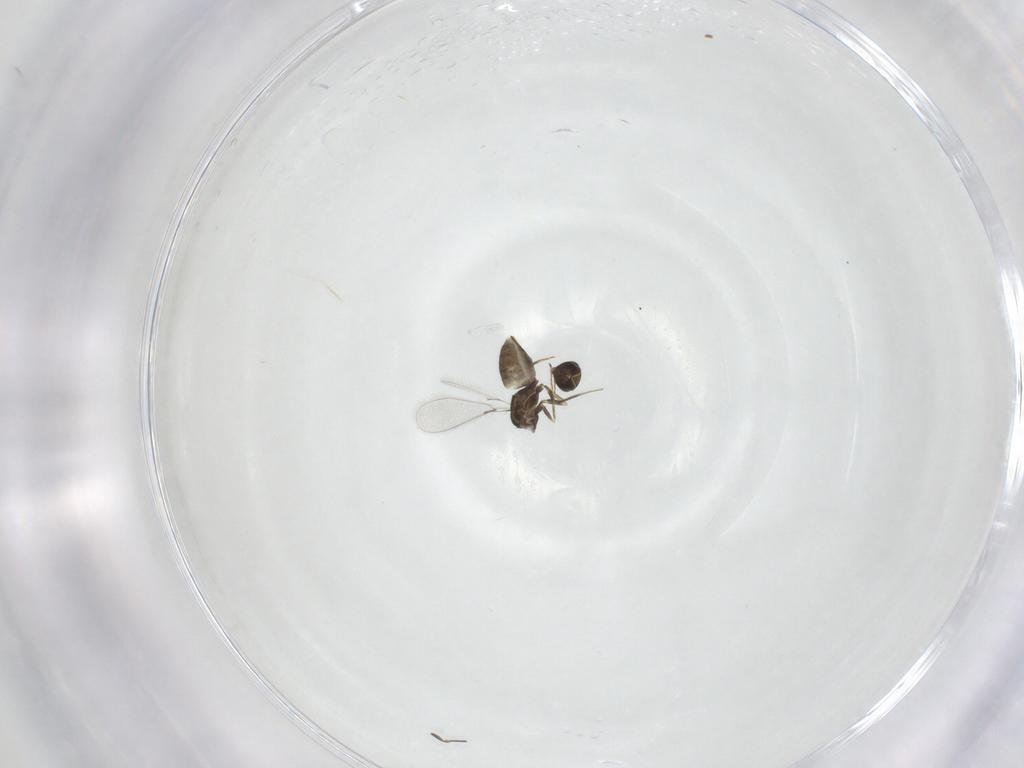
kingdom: Animalia
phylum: Arthropoda
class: Insecta
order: Hymenoptera
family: Mymaridae
